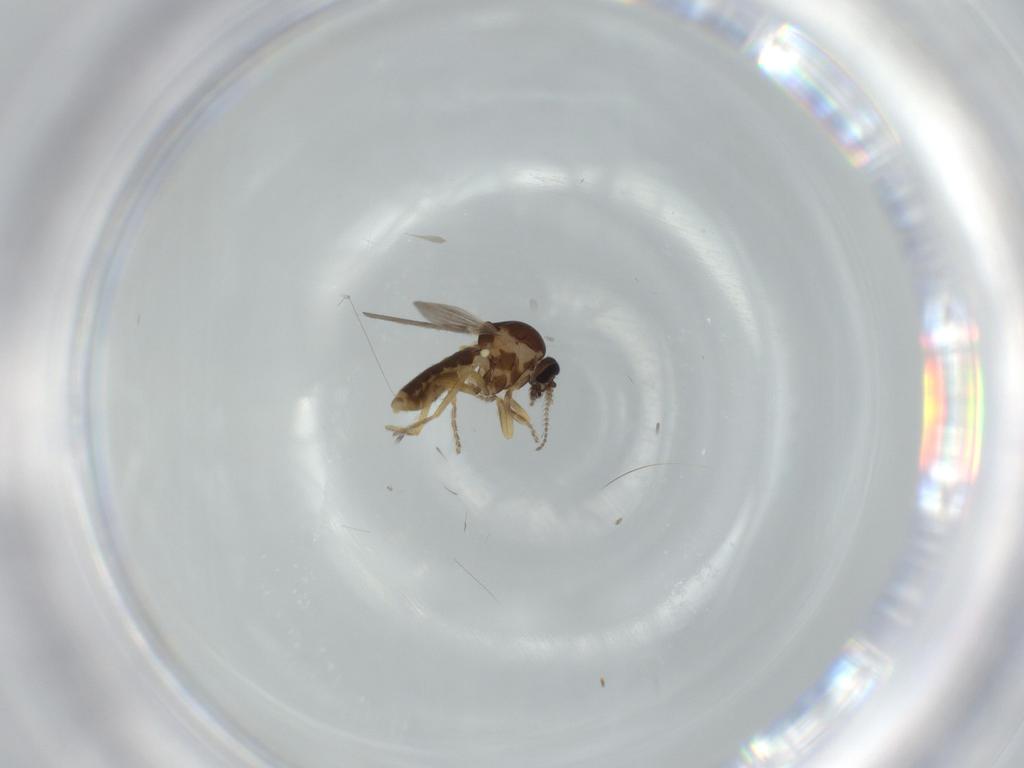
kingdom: Animalia
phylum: Arthropoda
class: Insecta
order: Diptera
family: Ceratopogonidae
